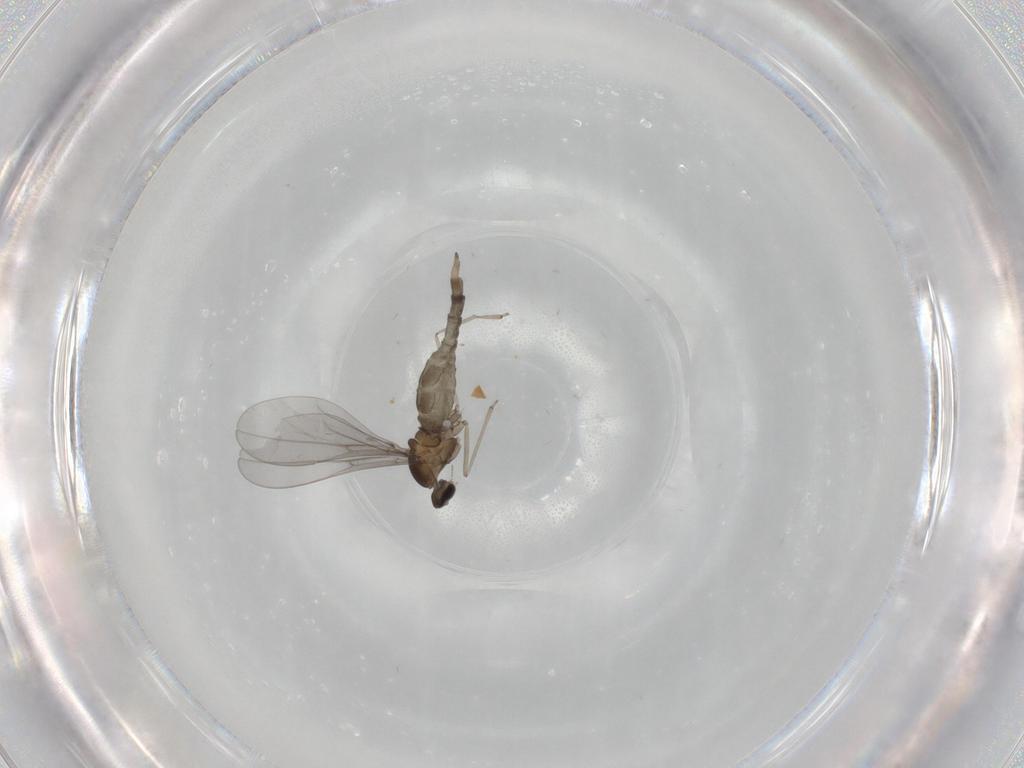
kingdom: Animalia
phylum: Arthropoda
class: Insecta
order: Diptera
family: Cecidomyiidae
